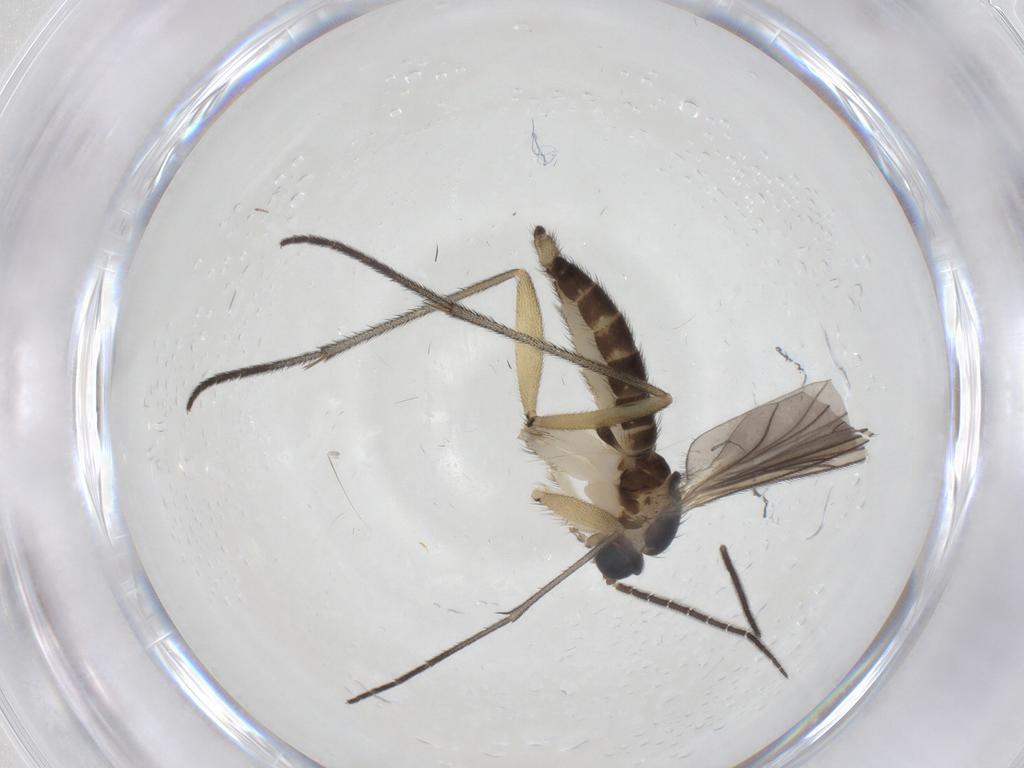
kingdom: Animalia
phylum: Arthropoda
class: Insecta
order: Diptera
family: Sciaridae
